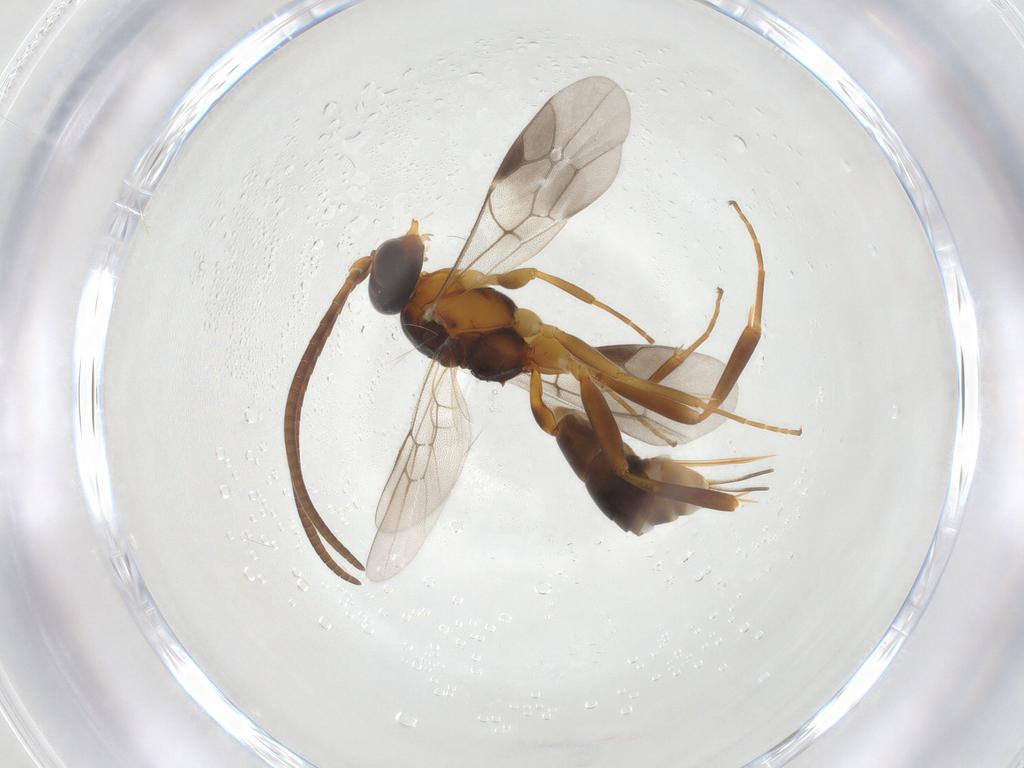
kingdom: Animalia
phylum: Arthropoda
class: Insecta
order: Hymenoptera
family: Ichneumonidae
